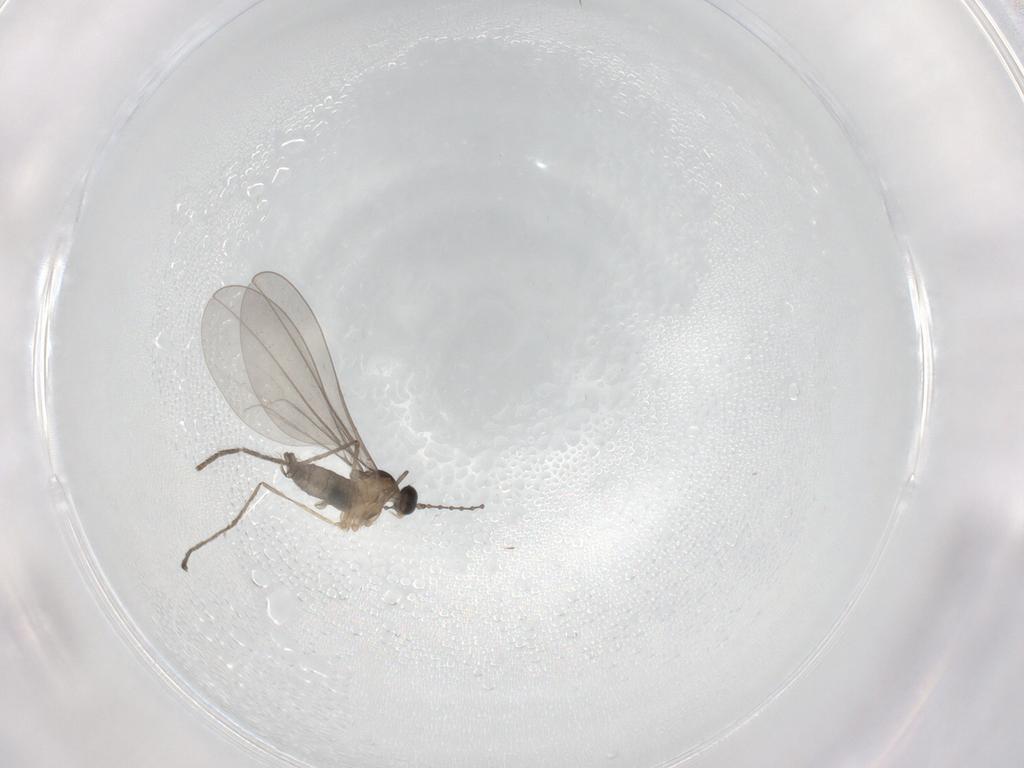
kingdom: Animalia
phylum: Arthropoda
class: Insecta
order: Diptera
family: Cecidomyiidae
